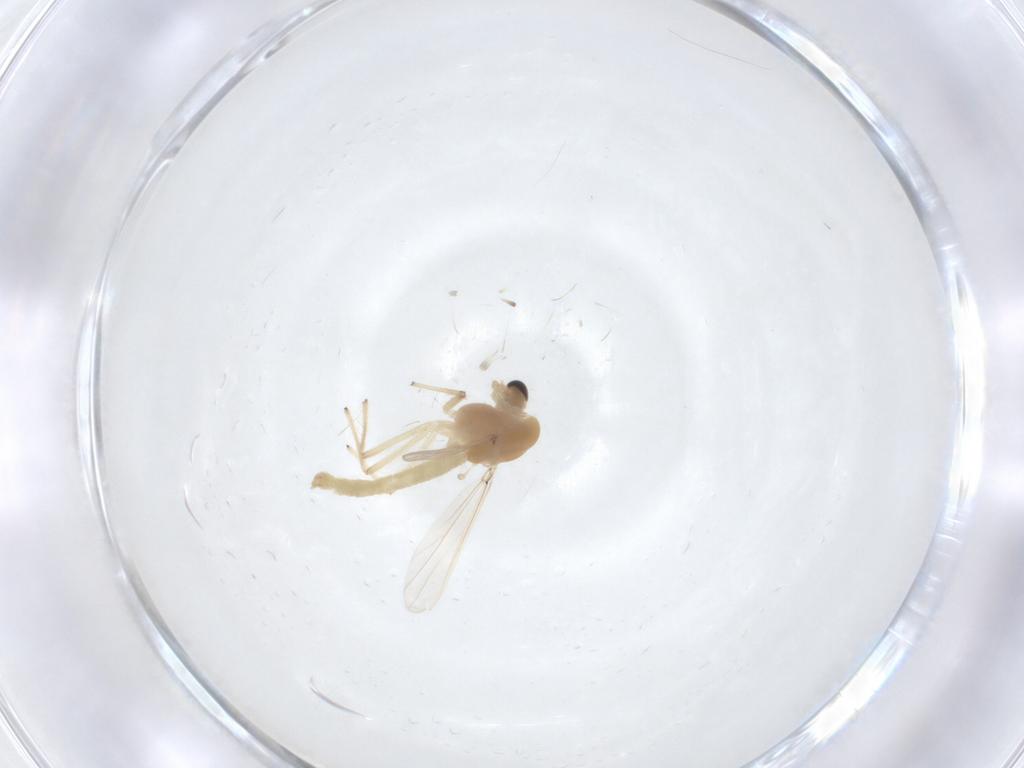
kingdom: Animalia
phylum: Arthropoda
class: Insecta
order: Diptera
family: Chironomidae
